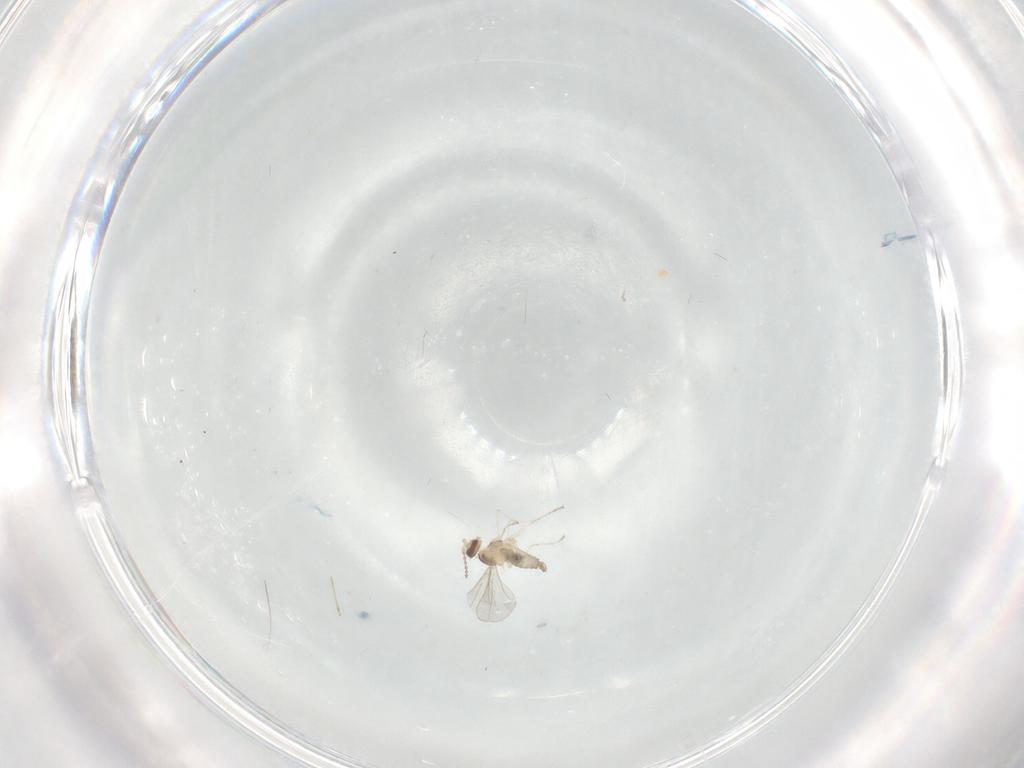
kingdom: Animalia
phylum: Arthropoda
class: Insecta
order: Diptera
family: Cecidomyiidae
